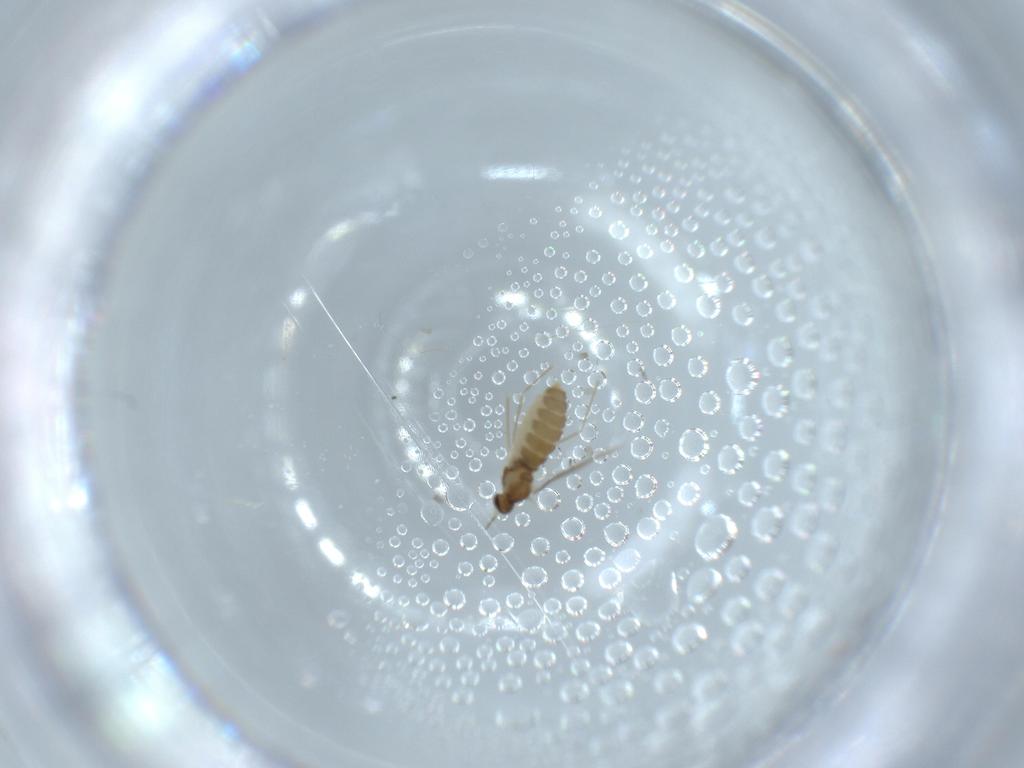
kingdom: Animalia
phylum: Arthropoda
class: Insecta
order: Diptera
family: Cecidomyiidae
